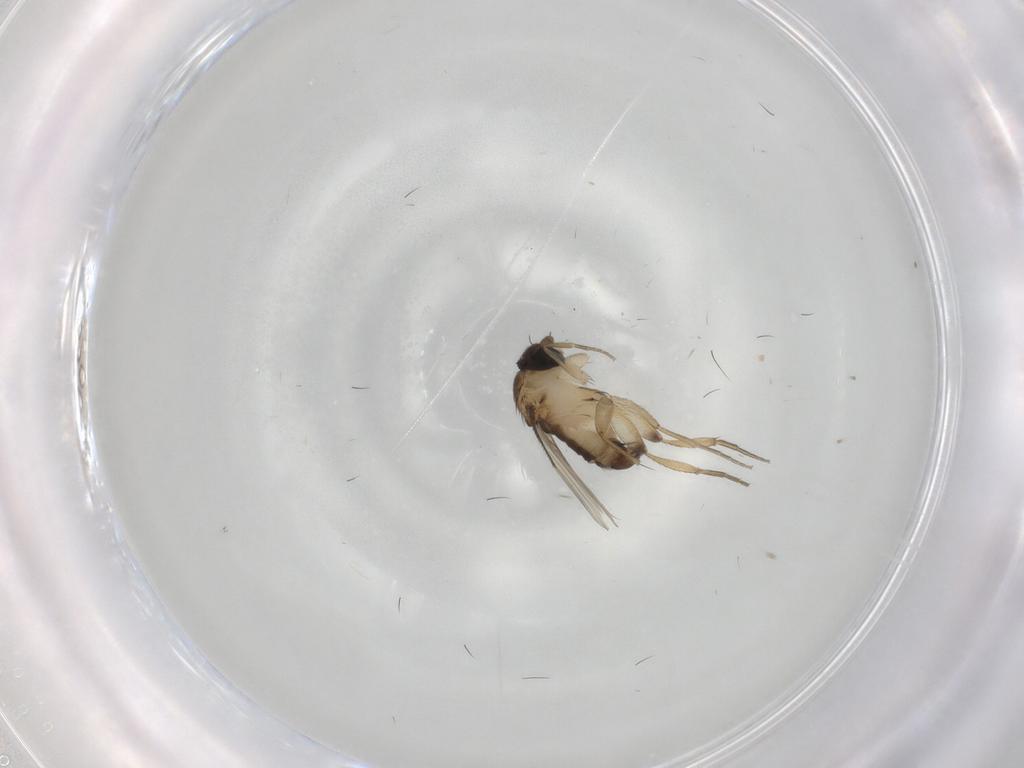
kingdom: Animalia
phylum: Arthropoda
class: Insecta
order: Diptera
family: Phoridae
